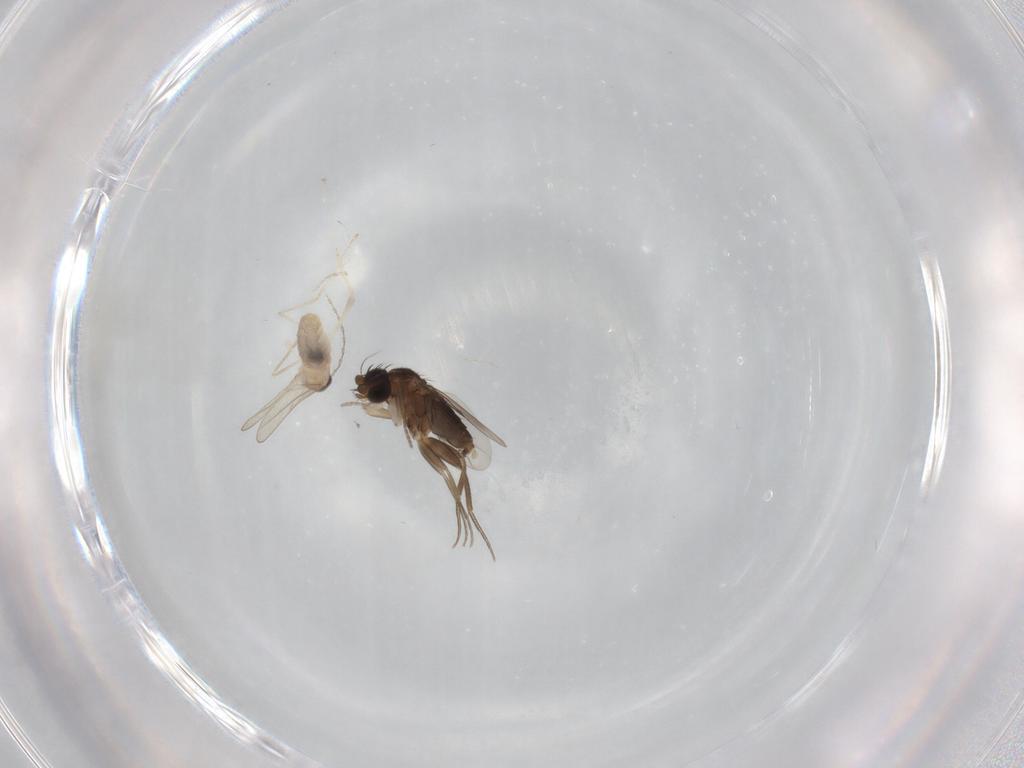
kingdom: Animalia
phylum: Arthropoda
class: Insecta
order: Diptera
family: Cecidomyiidae
